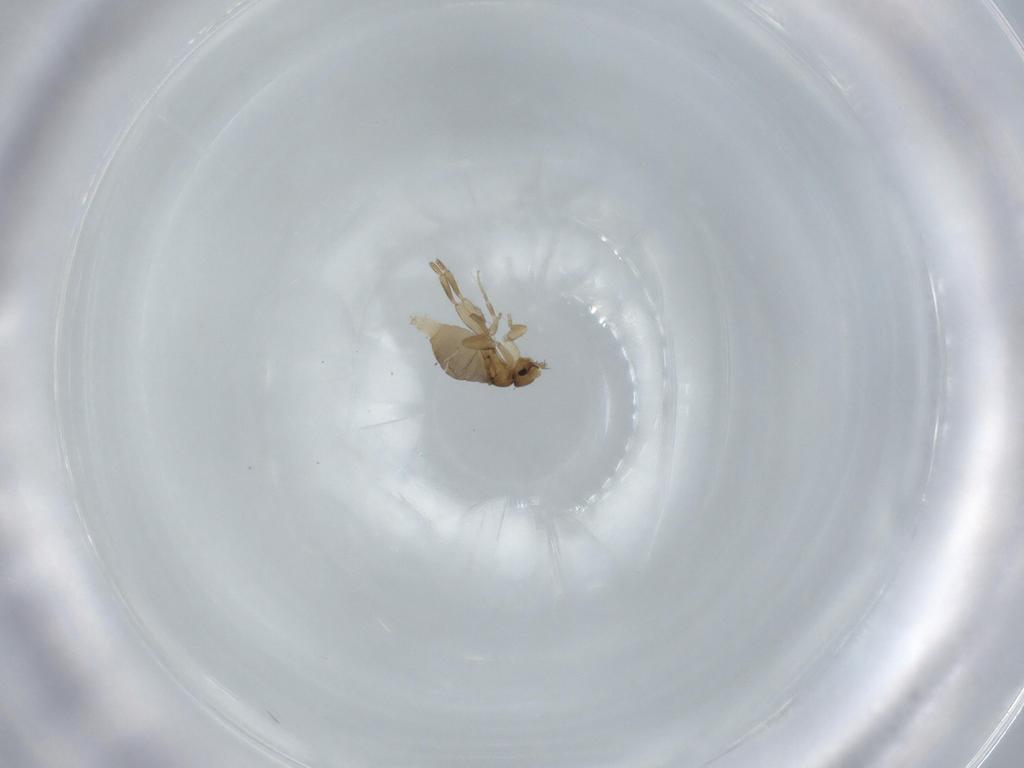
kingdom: Animalia
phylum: Arthropoda
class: Insecta
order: Diptera
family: Phoridae
